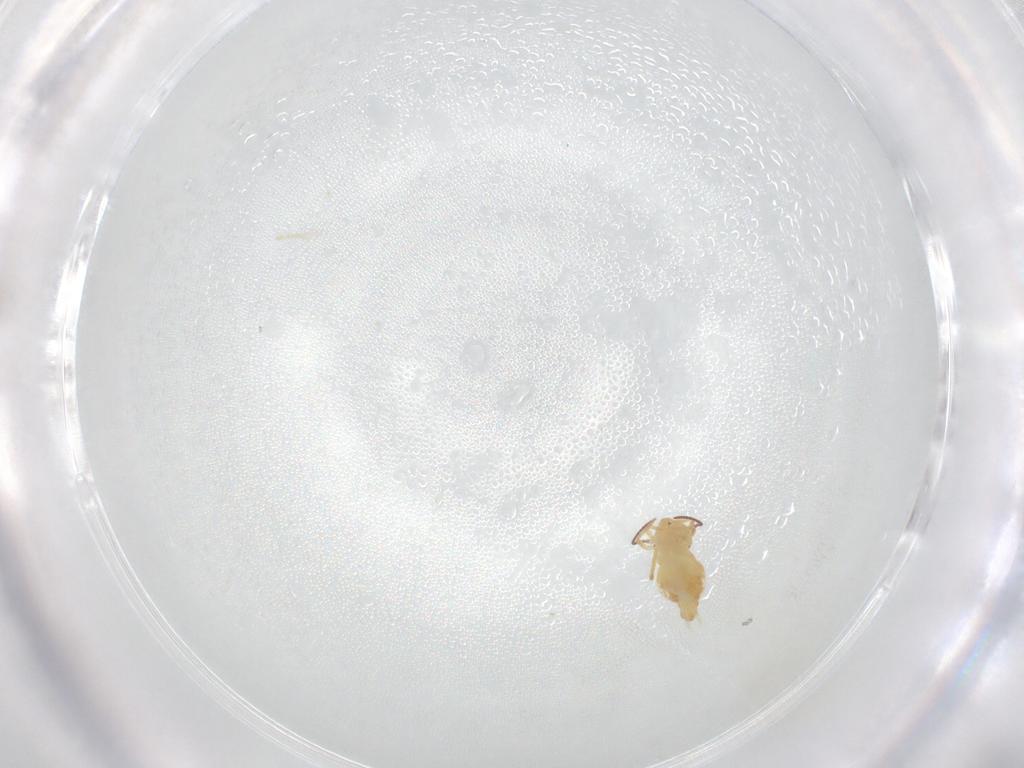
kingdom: Animalia
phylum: Arthropoda
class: Collembola
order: Symphypleona
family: Bourletiellidae
